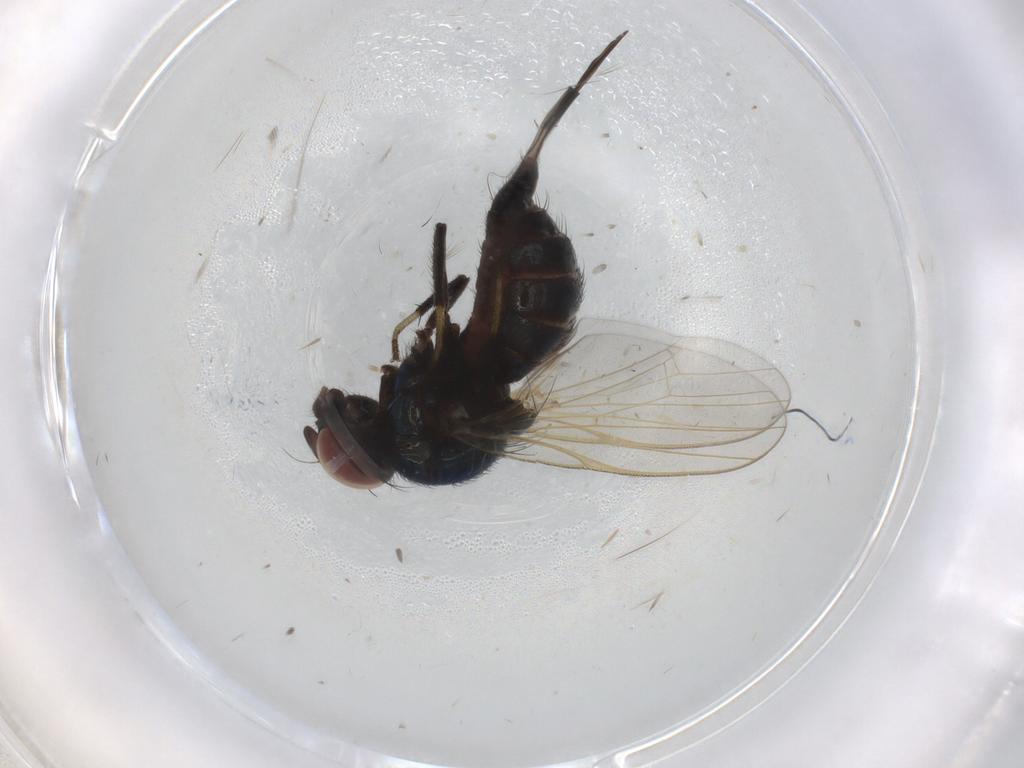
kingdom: Animalia
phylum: Arthropoda
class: Insecta
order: Diptera
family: Lonchaeidae
